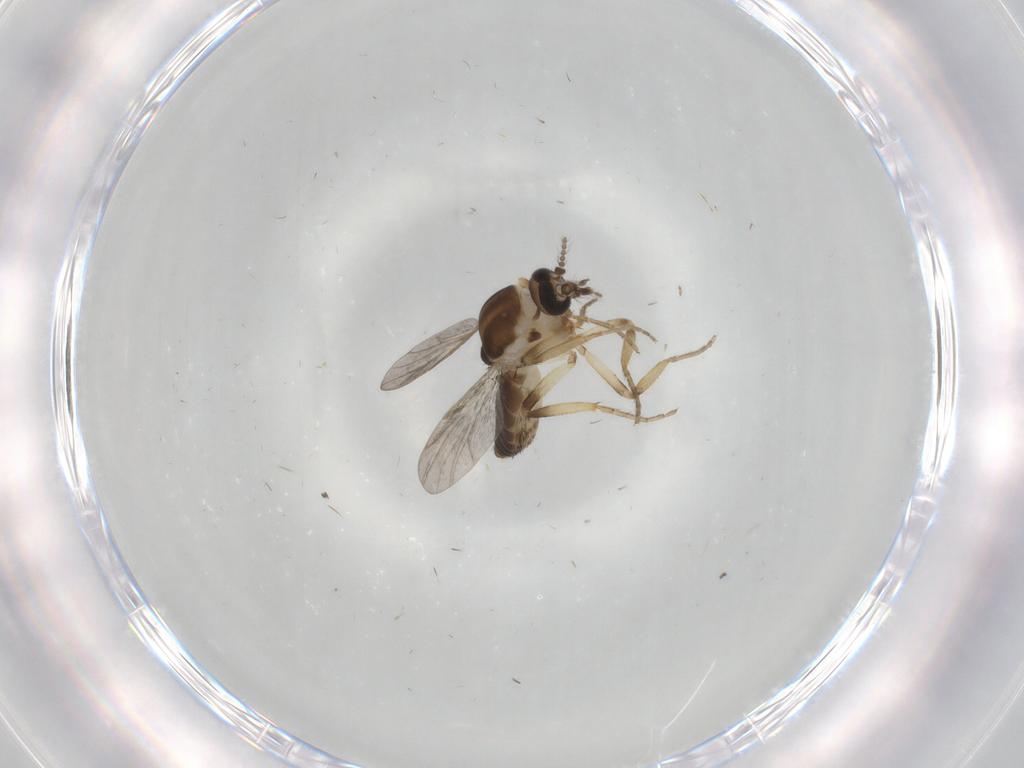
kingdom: Animalia
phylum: Arthropoda
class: Insecta
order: Diptera
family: Ceratopogonidae
